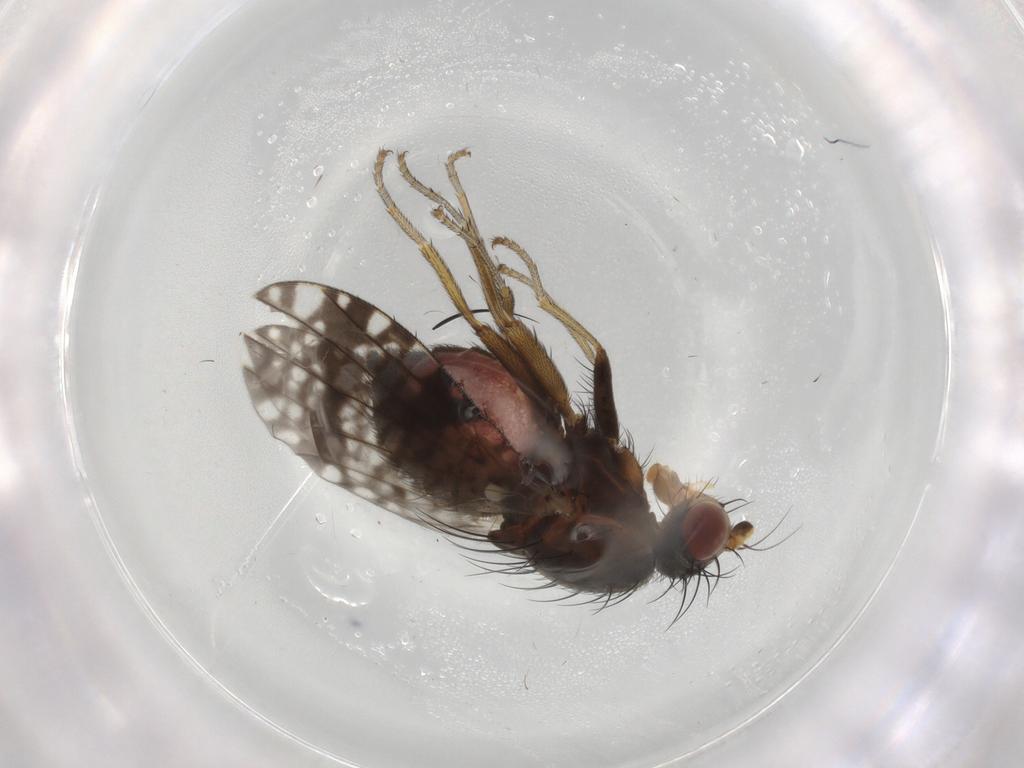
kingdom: Animalia
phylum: Arthropoda
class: Insecta
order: Diptera
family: Tephritidae
